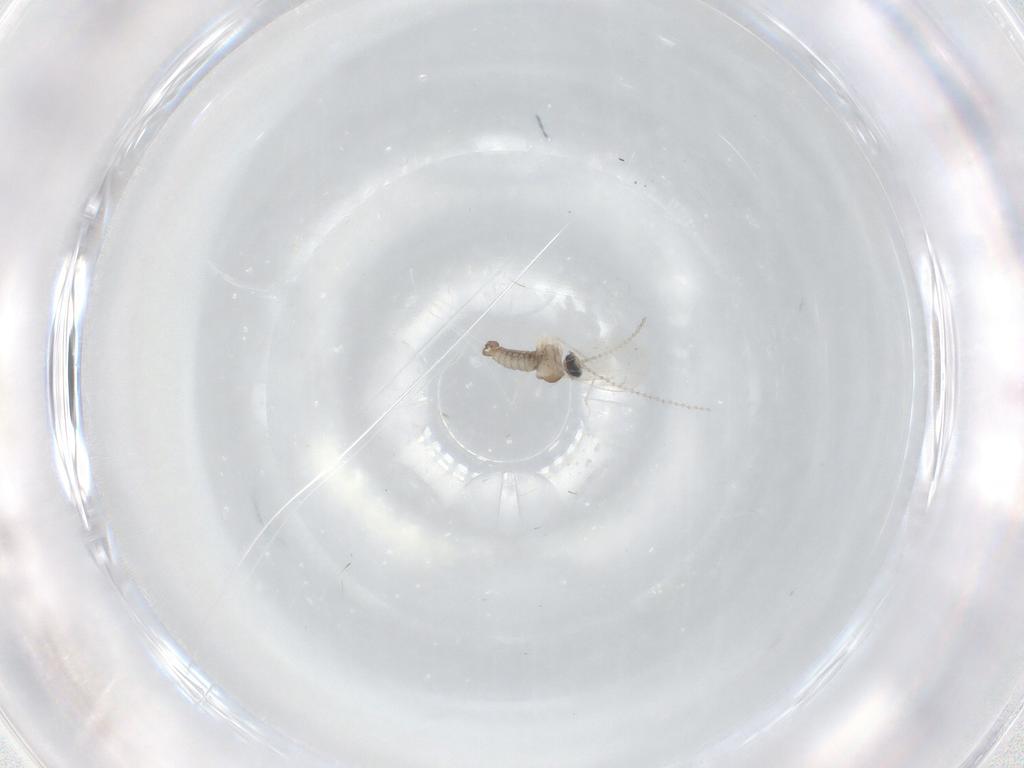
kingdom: Animalia
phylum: Arthropoda
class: Insecta
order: Diptera
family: Cecidomyiidae
